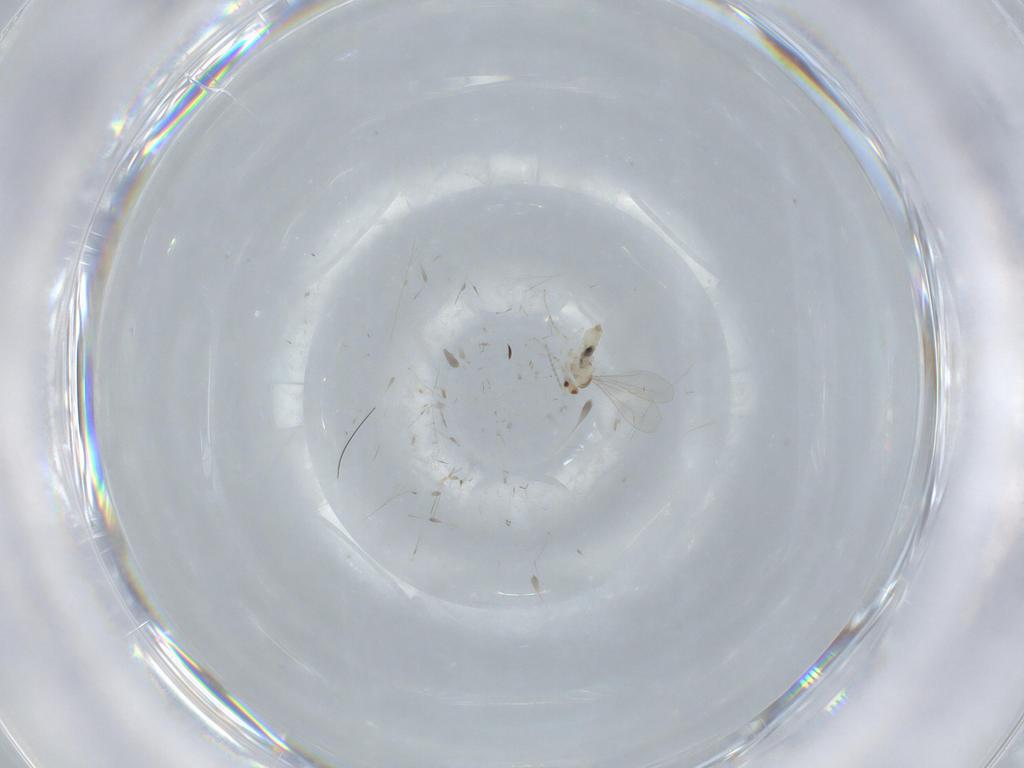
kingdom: Animalia
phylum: Arthropoda
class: Insecta
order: Diptera
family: Cecidomyiidae
